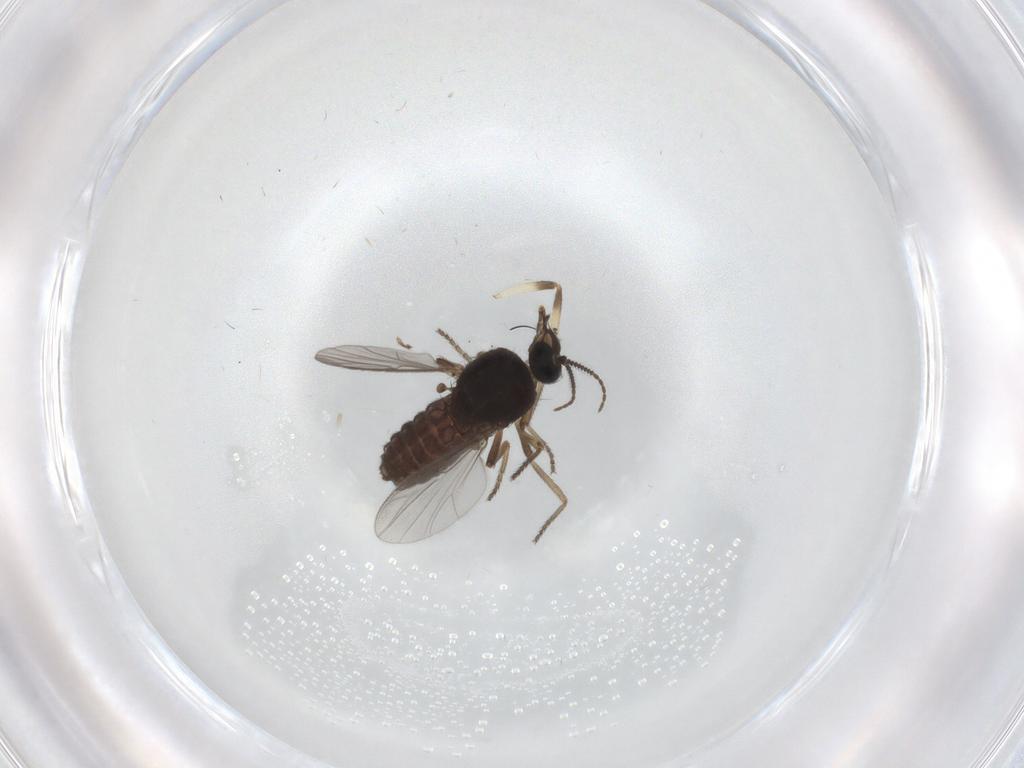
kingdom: Animalia
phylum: Arthropoda
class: Insecta
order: Diptera
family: Ceratopogonidae
